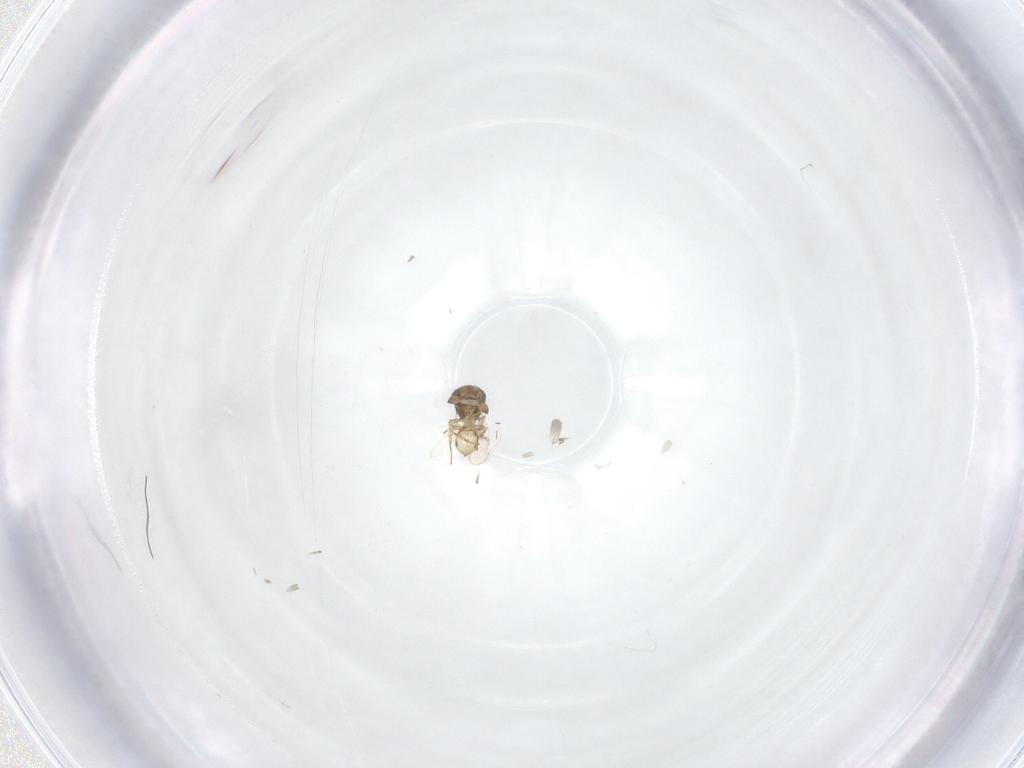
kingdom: Animalia
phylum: Arthropoda
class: Insecta
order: Hymenoptera
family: Scelionidae
